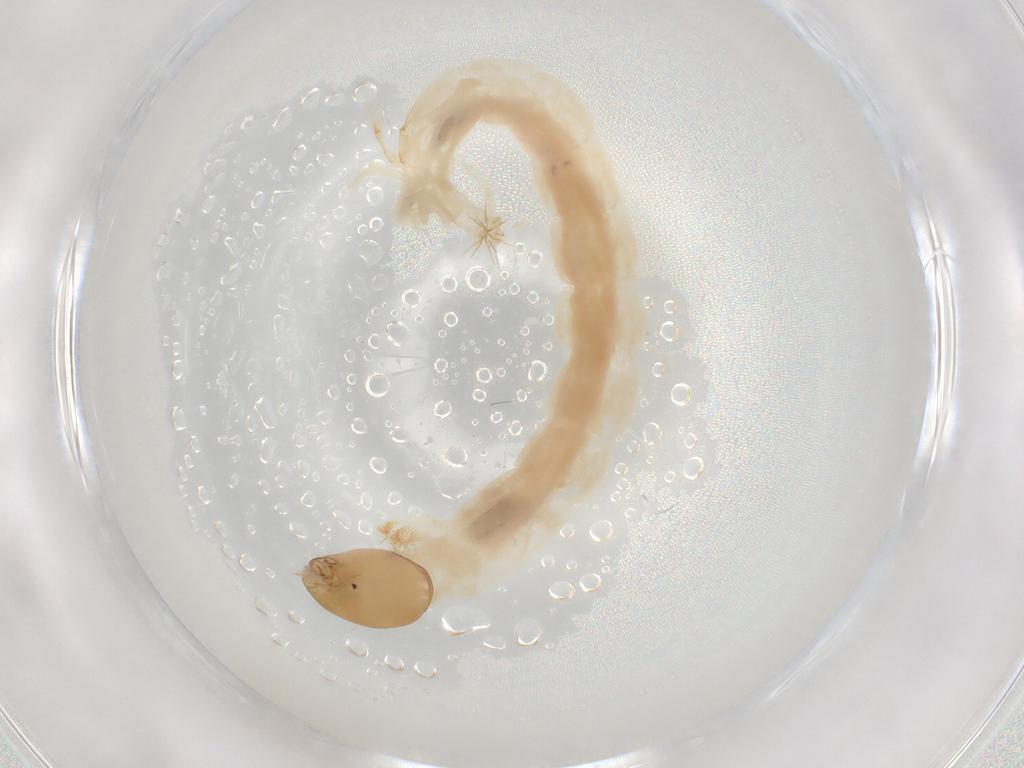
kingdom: Animalia
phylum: Arthropoda
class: Insecta
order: Diptera
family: Chironomidae
